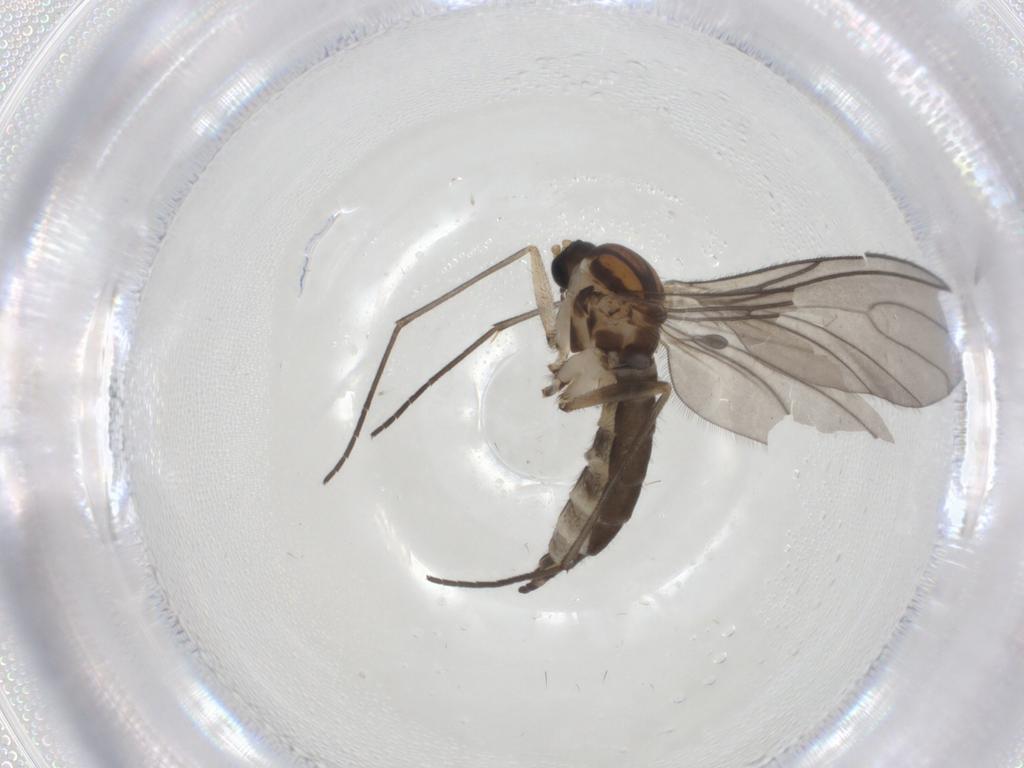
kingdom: Animalia
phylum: Arthropoda
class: Insecta
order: Diptera
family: Sciaridae
